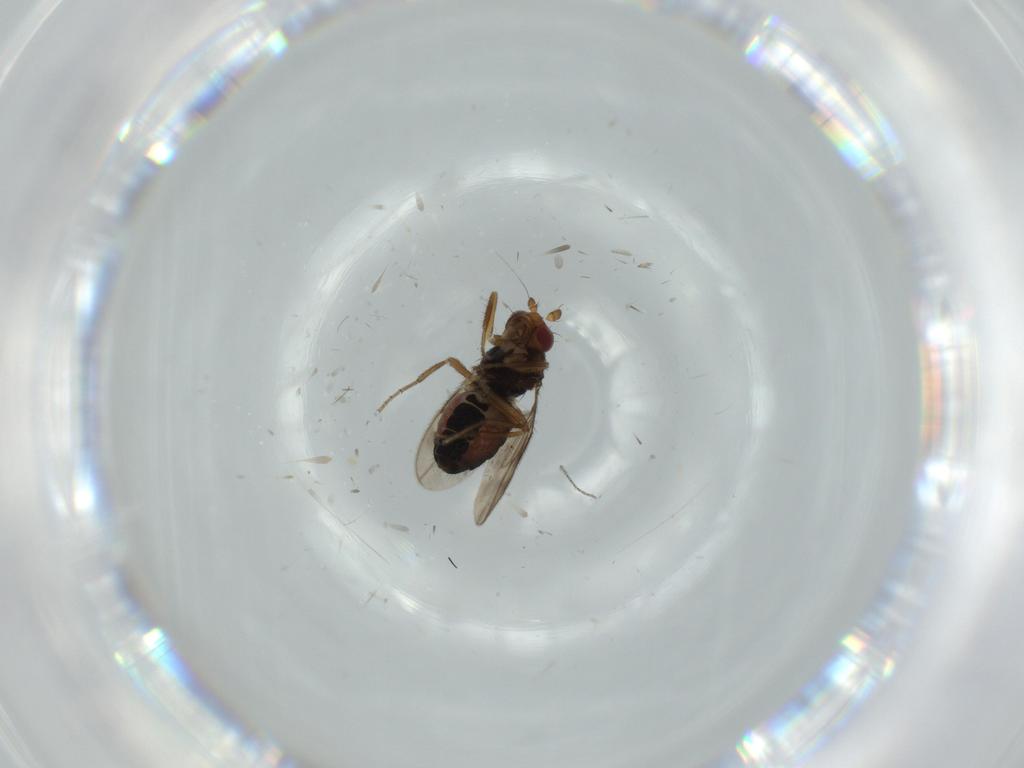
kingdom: Animalia
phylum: Arthropoda
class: Insecta
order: Diptera
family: Sphaeroceridae
